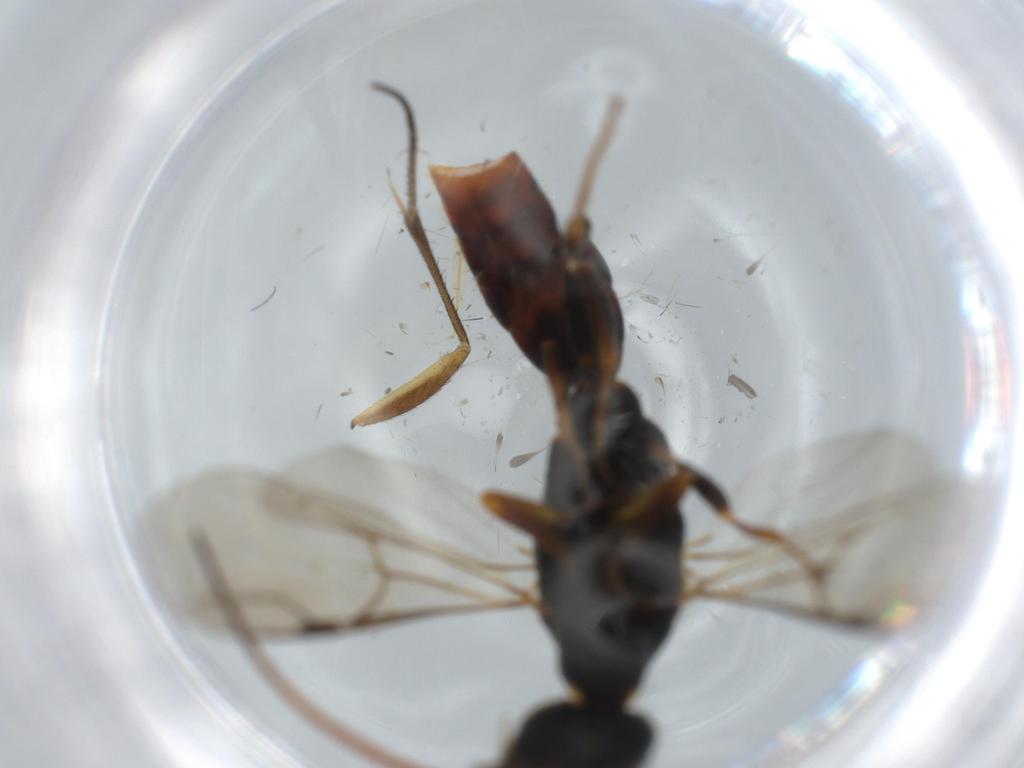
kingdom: Animalia
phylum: Arthropoda
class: Insecta
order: Hymenoptera
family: Bethylidae
